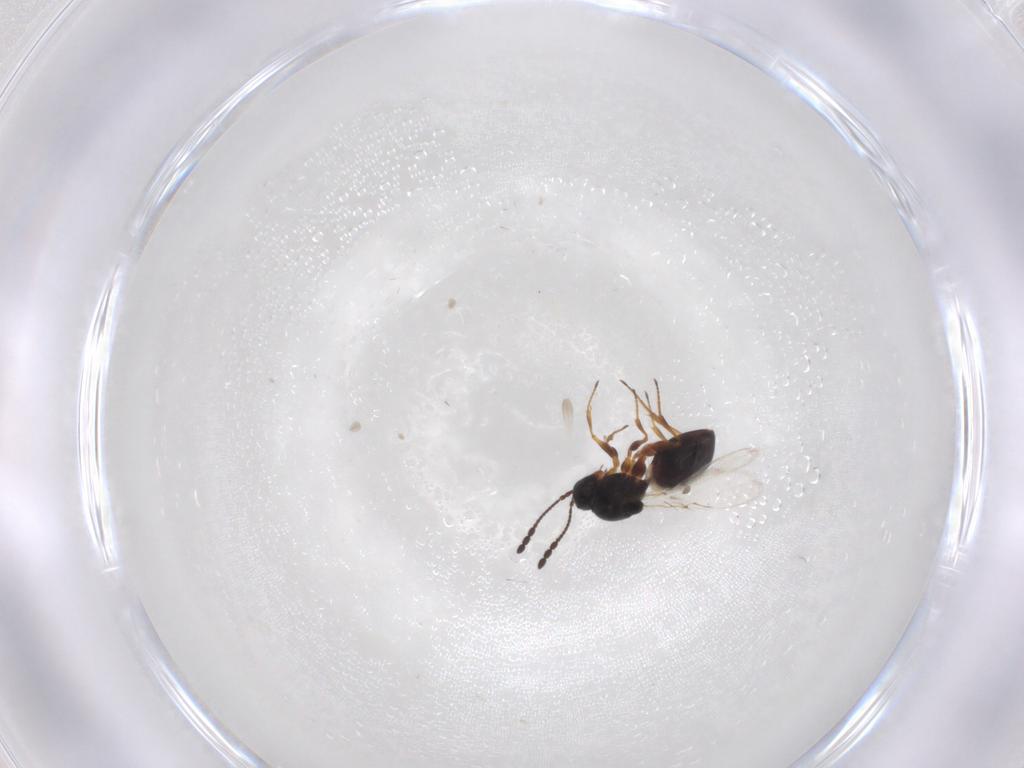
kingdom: Animalia
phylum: Arthropoda
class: Insecta
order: Hymenoptera
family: Figitidae
